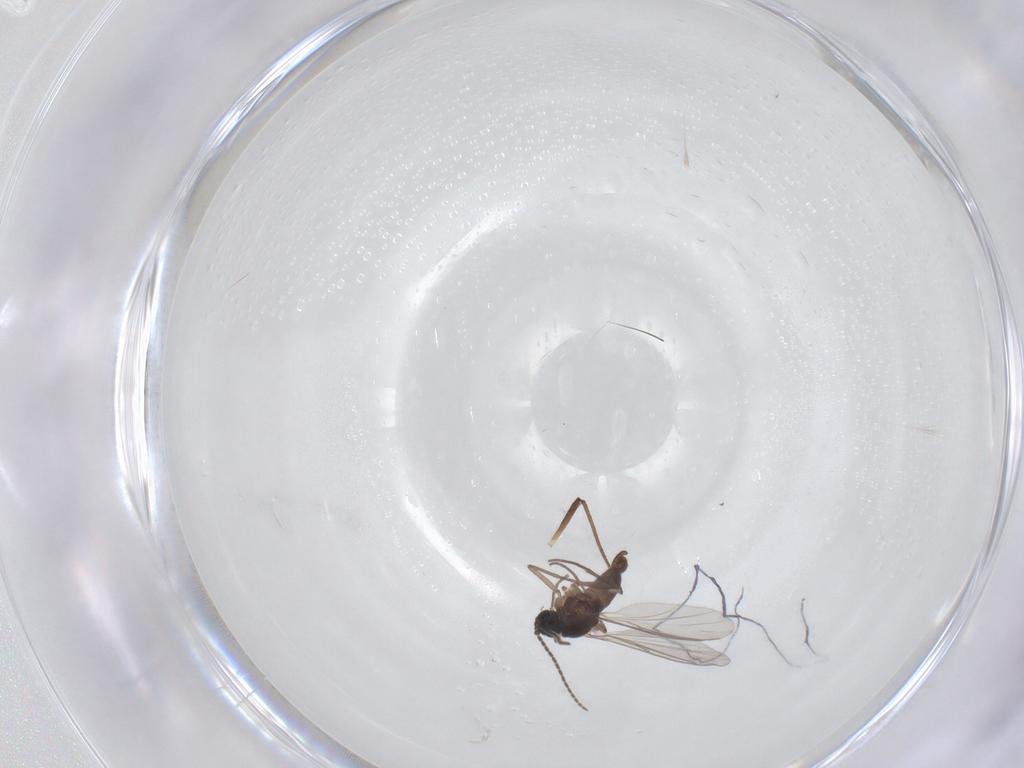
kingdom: Animalia
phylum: Arthropoda
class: Insecta
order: Diptera
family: Sciaridae
